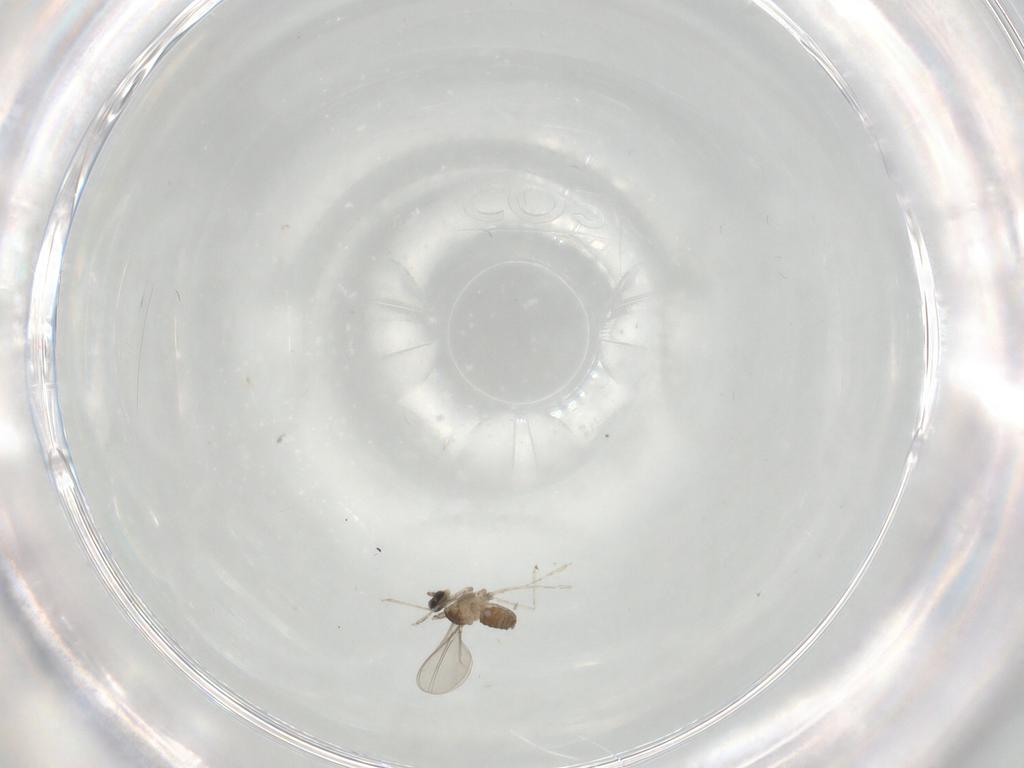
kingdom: Animalia
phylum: Arthropoda
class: Insecta
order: Diptera
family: Cecidomyiidae
